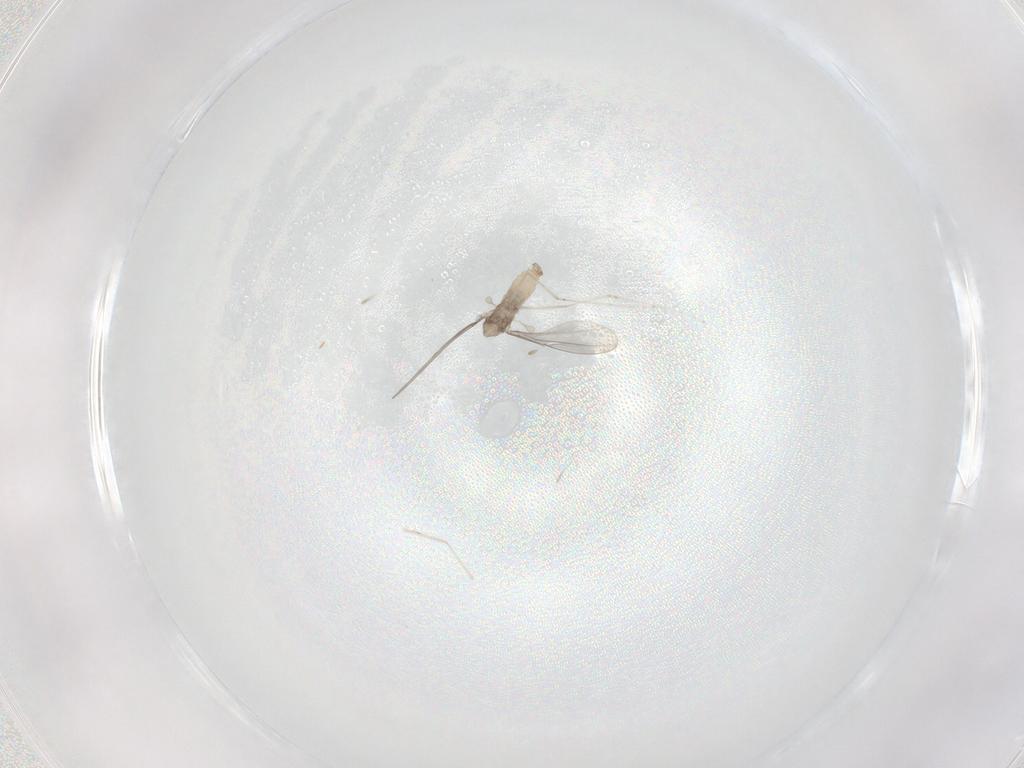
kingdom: Animalia
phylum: Arthropoda
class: Insecta
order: Diptera
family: Cecidomyiidae
